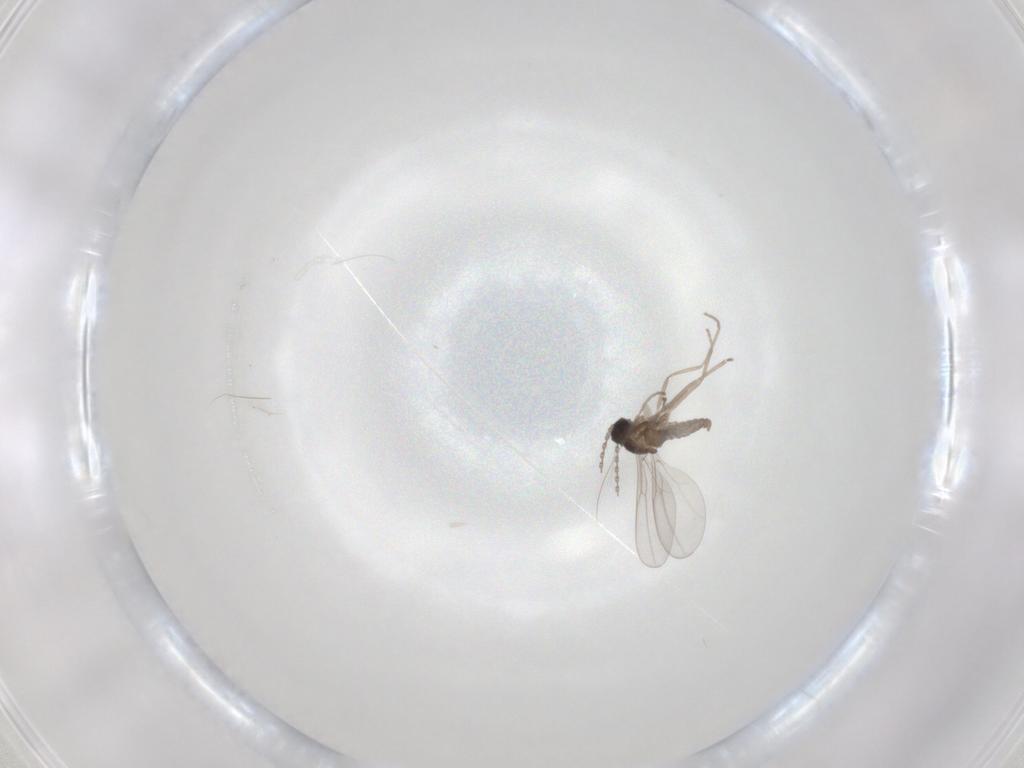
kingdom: Animalia
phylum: Arthropoda
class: Insecta
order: Diptera
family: Cecidomyiidae
